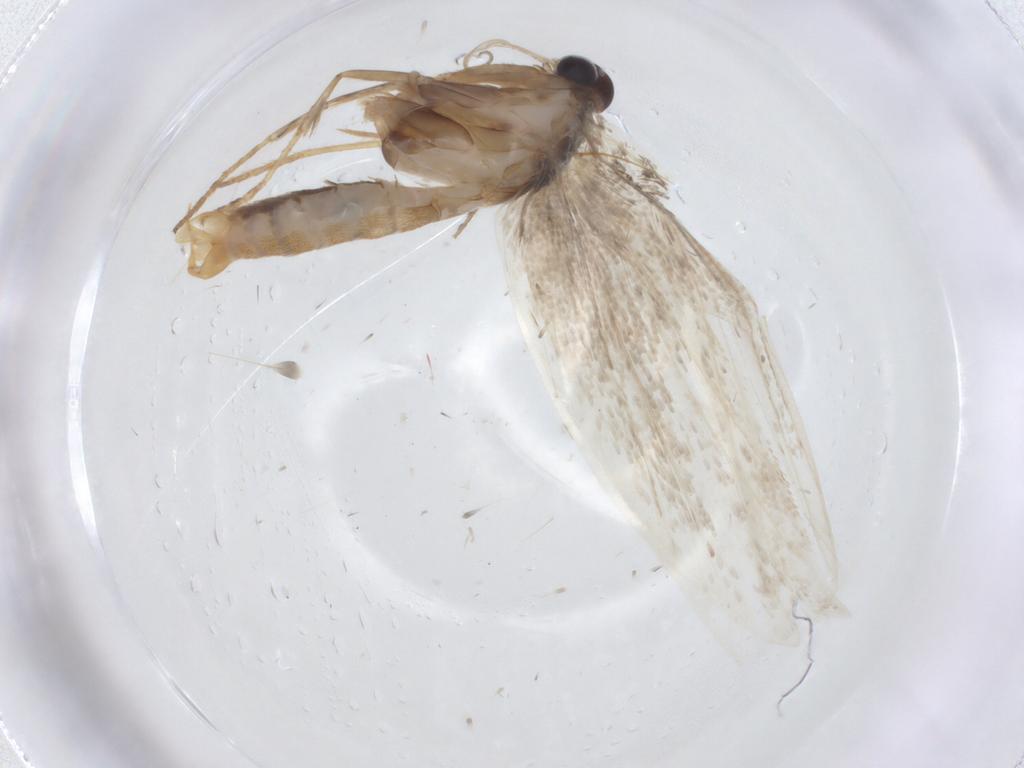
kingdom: Animalia
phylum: Arthropoda
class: Insecta
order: Lepidoptera
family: Erebidae
